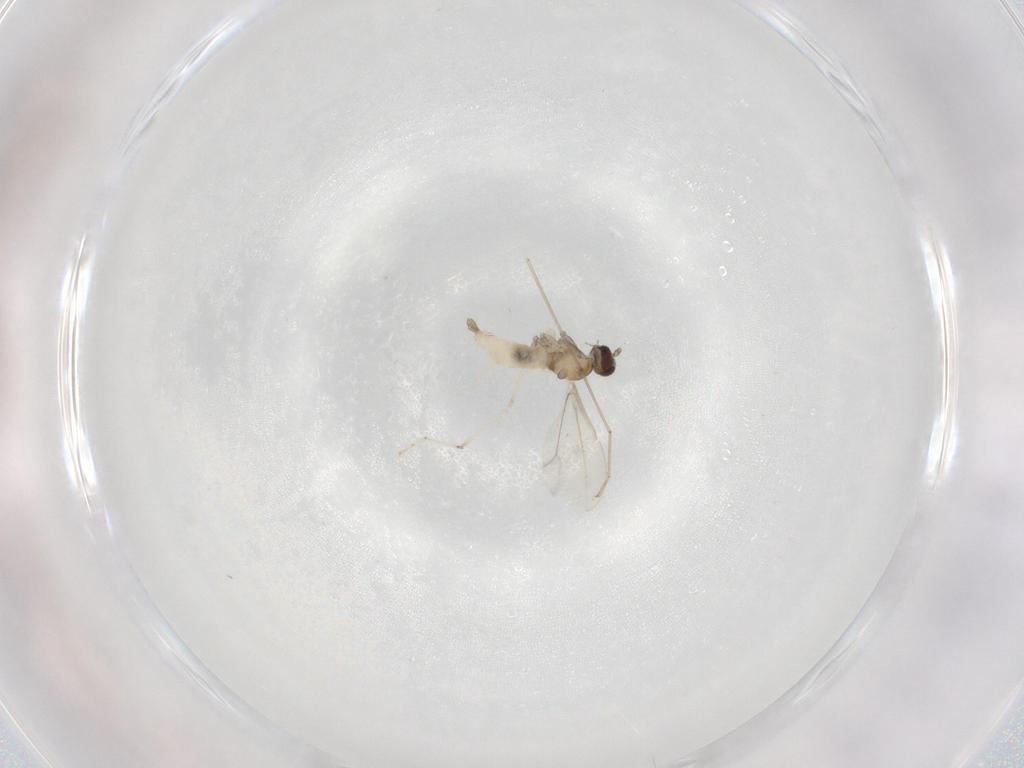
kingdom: Animalia
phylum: Arthropoda
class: Insecta
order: Diptera
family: Cecidomyiidae
